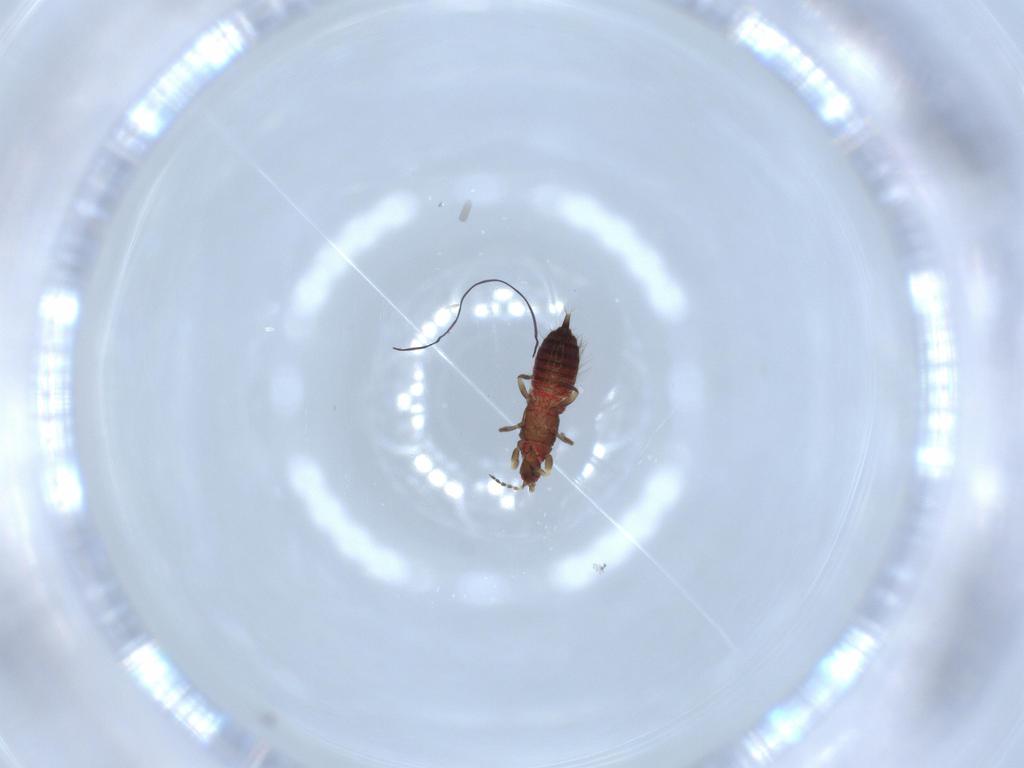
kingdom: Animalia
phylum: Arthropoda
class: Insecta
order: Thysanoptera
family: Phlaeothripidae
